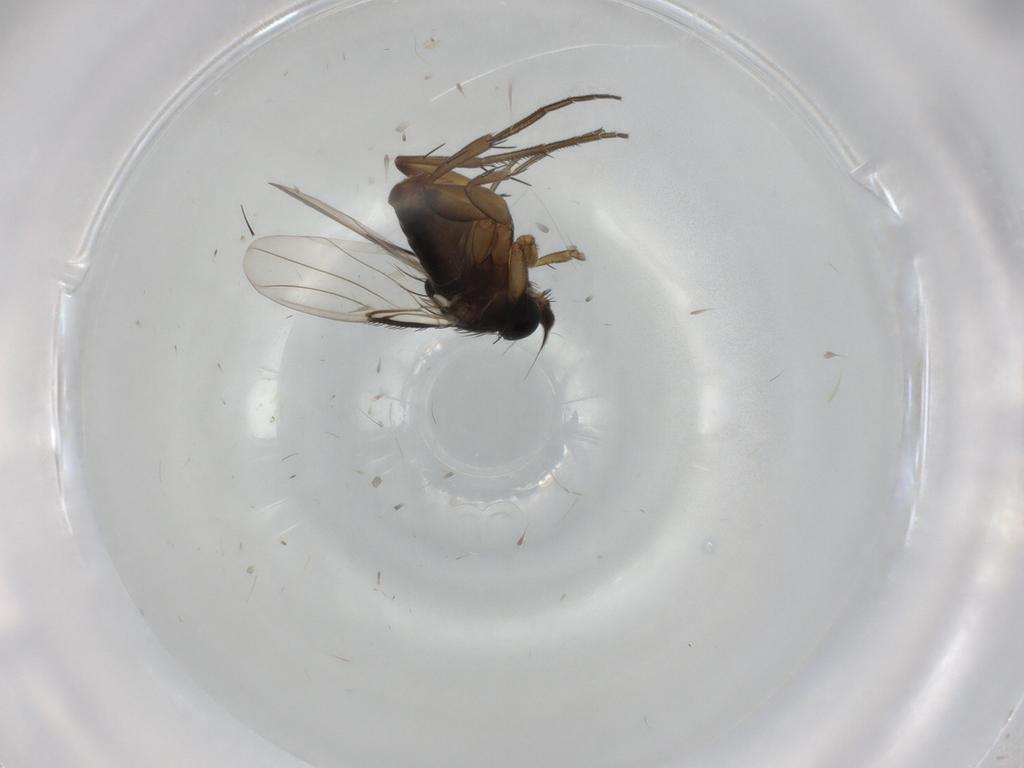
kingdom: Animalia
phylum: Arthropoda
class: Insecta
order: Diptera
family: Phoridae
